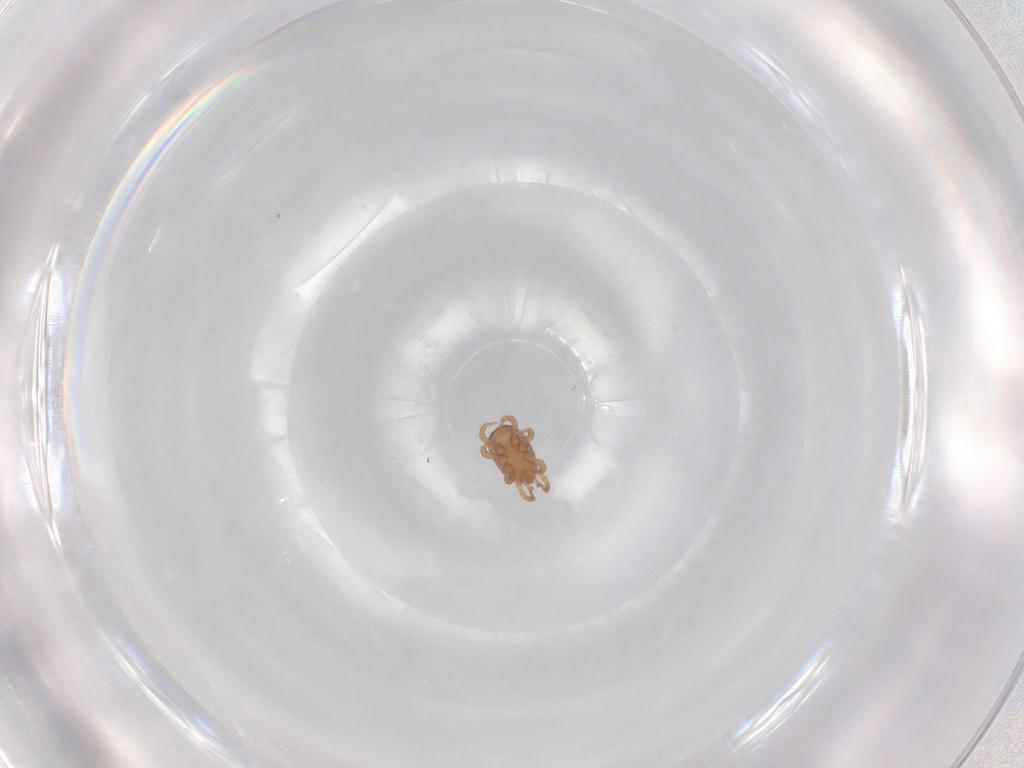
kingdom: Animalia
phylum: Arthropoda
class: Arachnida
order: Mesostigmata
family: Eviphididae
